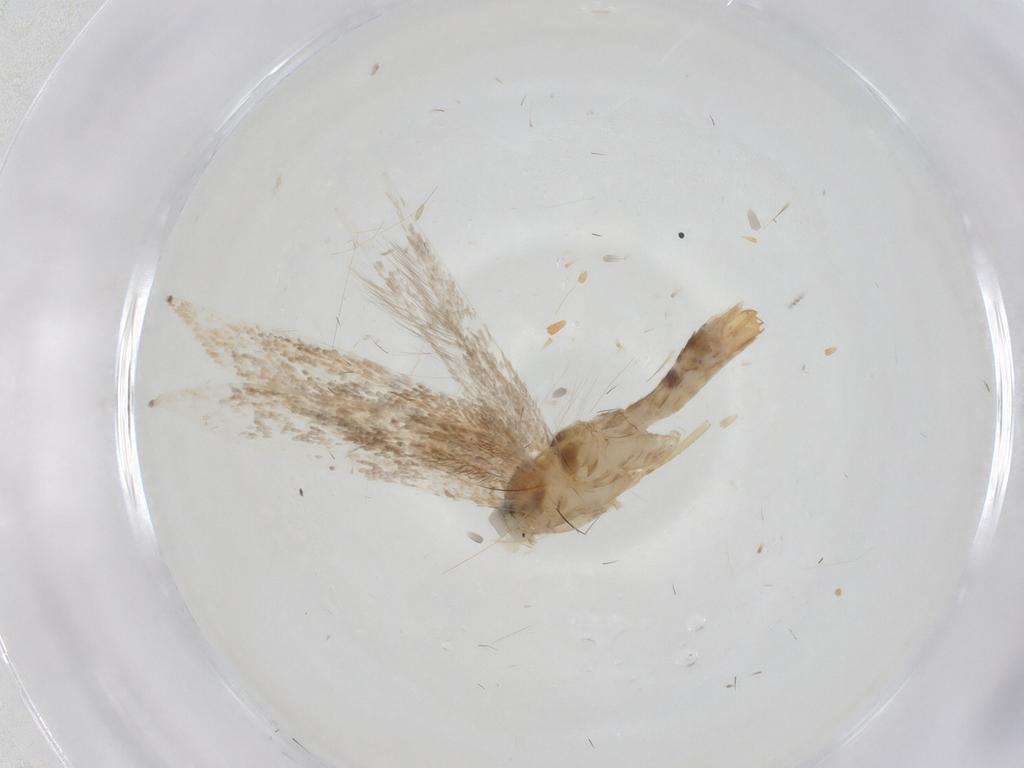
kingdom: Animalia
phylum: Arthropoda
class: Insecta
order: Lepidoptera
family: Gracillariidae
